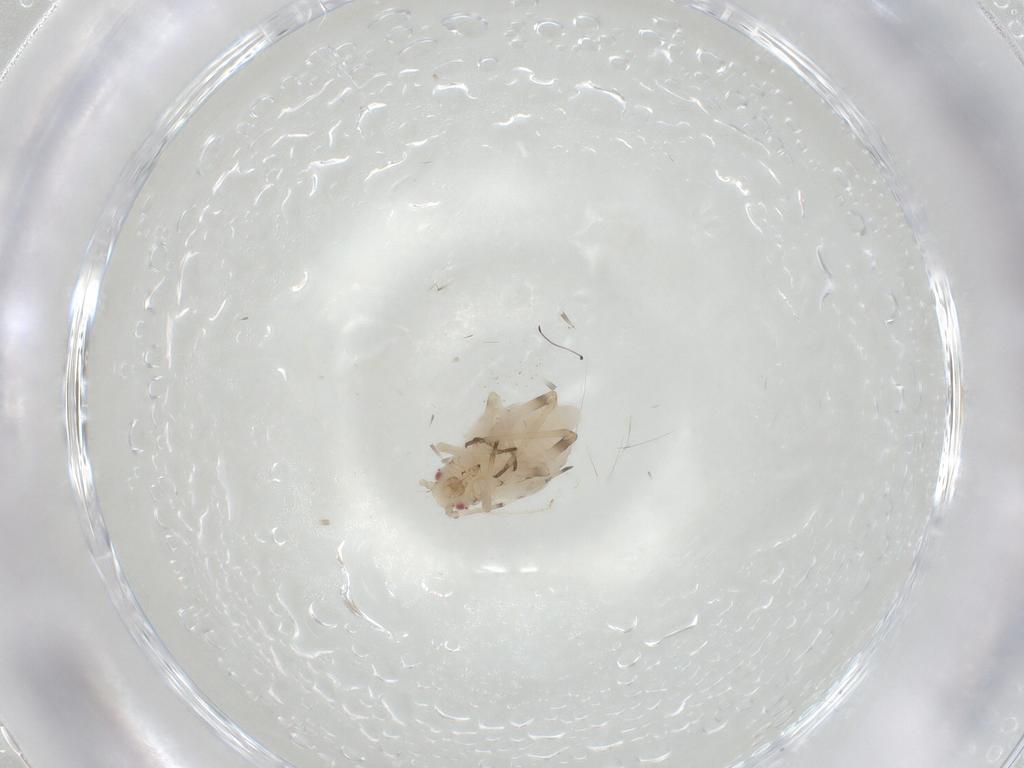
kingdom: Animalia
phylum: Arthropoda
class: Insecta
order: Hemiptera
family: Aphididae
